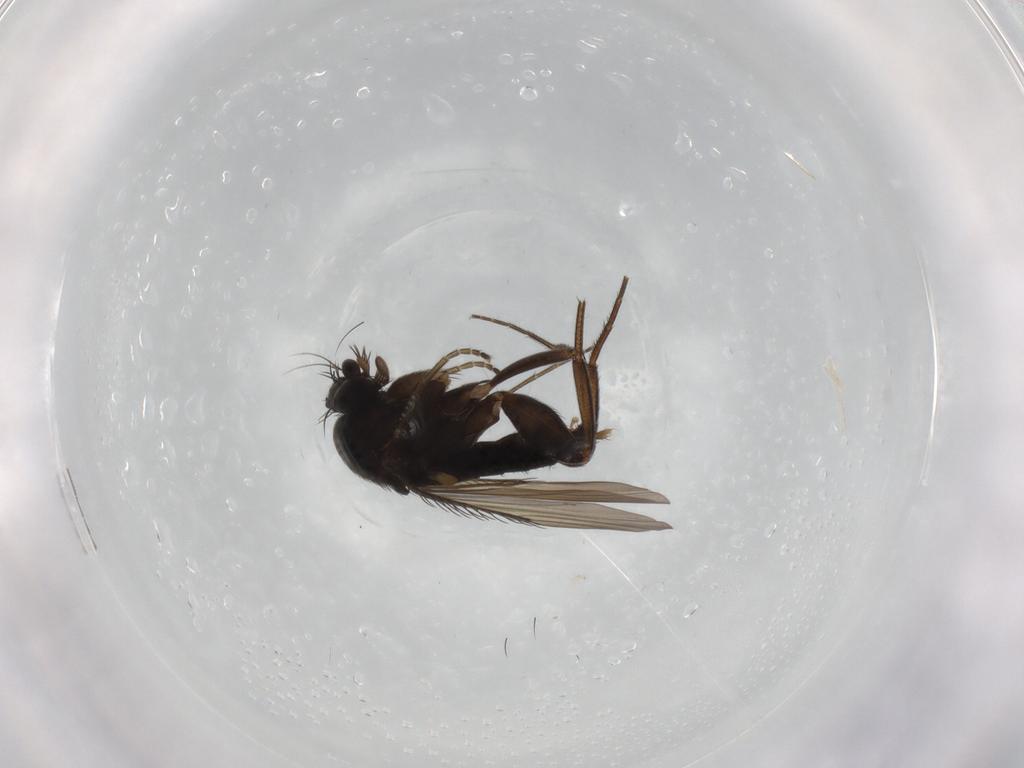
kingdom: Animalia
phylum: Arthropoda
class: Insecta
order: Diptera
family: Phoridae
